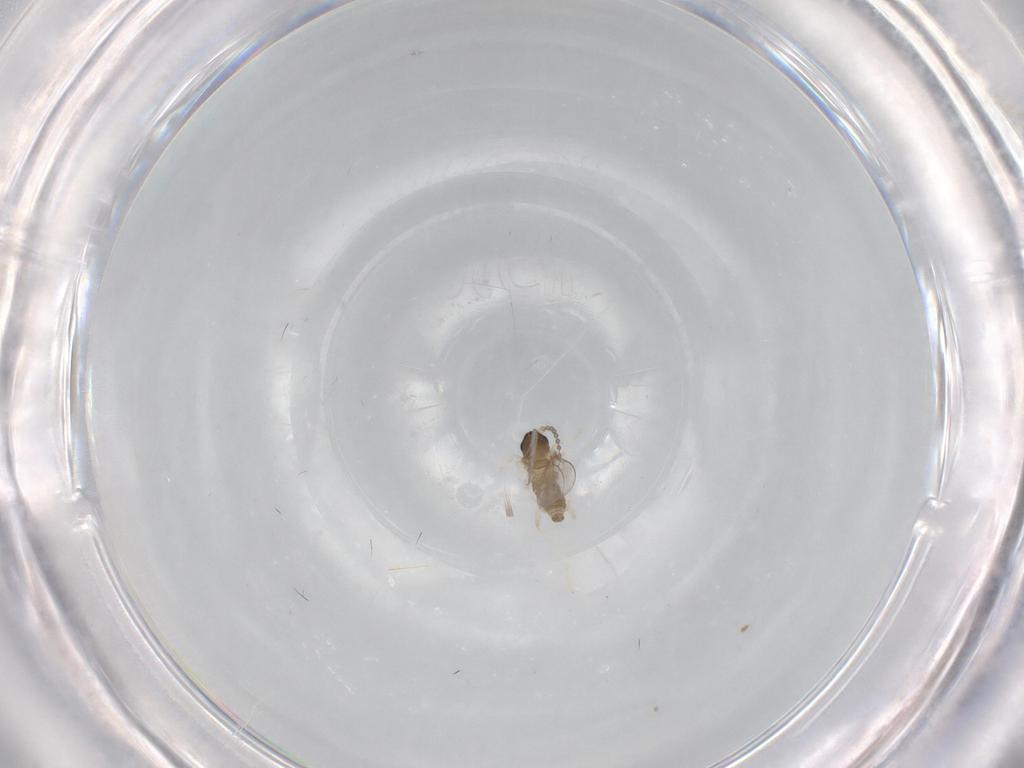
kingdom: Animalia
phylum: Arthropoda
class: Insecta
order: Diptera
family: Cecidomyiidae
